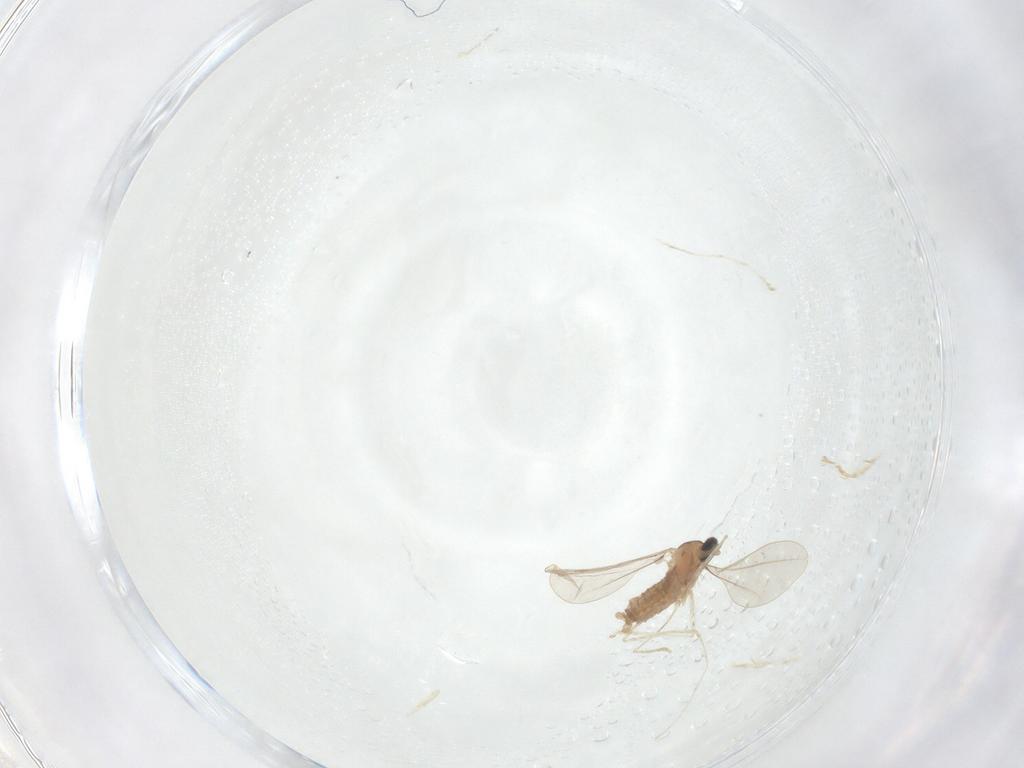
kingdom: Animalia
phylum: Arthropoda
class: Insecta
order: Diptera
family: Cecidomyiidae
